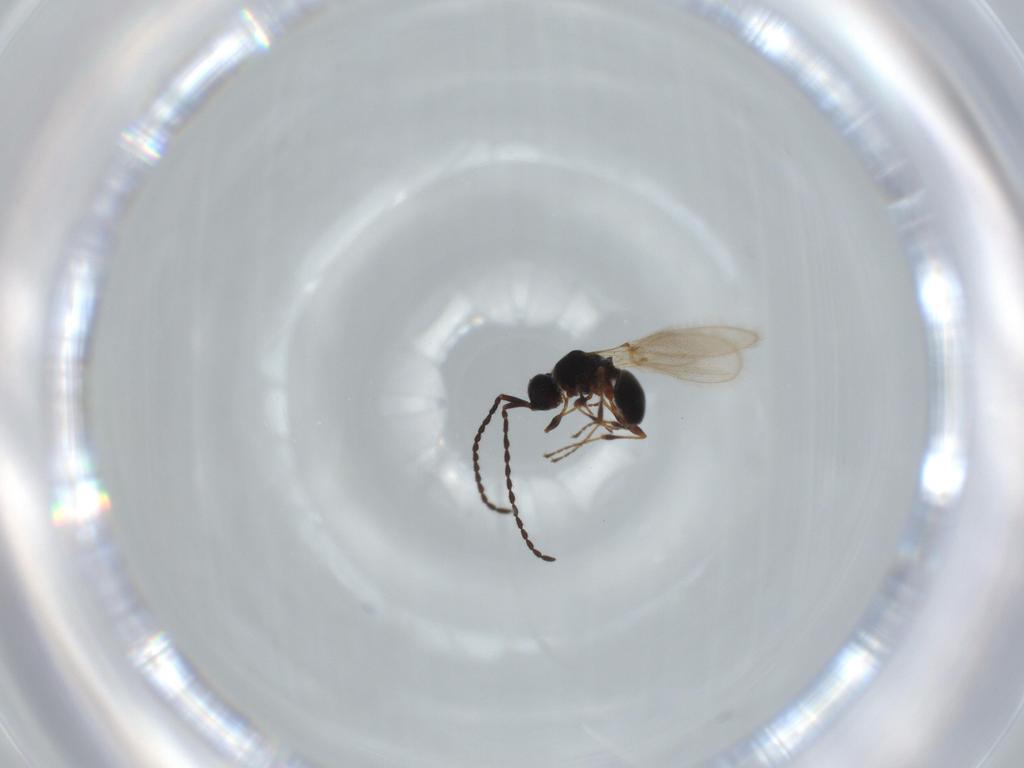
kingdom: Animalia
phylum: Arthropoda
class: Insecta
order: Hymenoptera
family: Diapriidae
